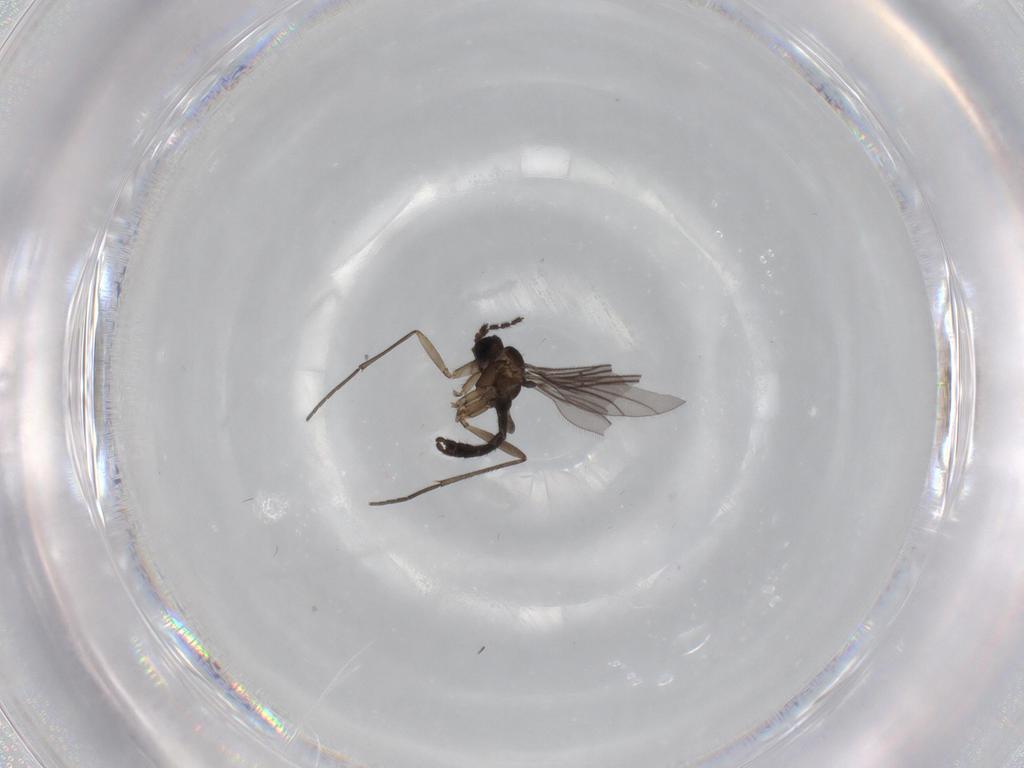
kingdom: Animalia
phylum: Arthropoda
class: Insecta
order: Diptera
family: Sciaridae
